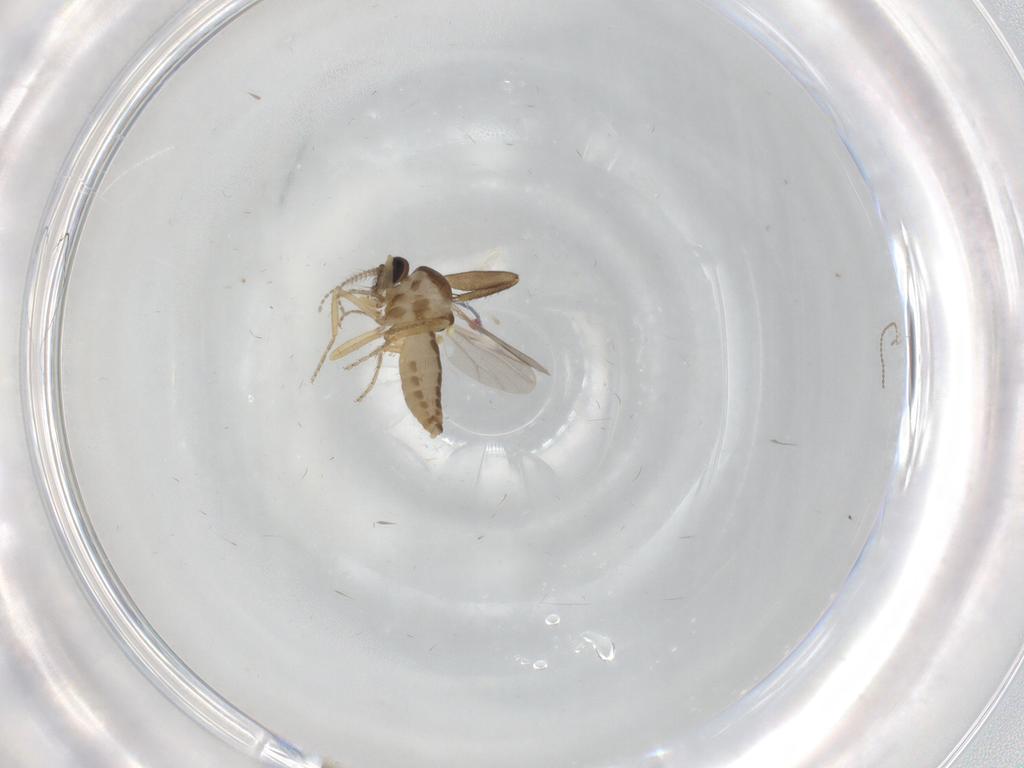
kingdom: Animalia
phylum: Arthropoda
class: Insecta
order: Diptera
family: Ceratopogonidae
